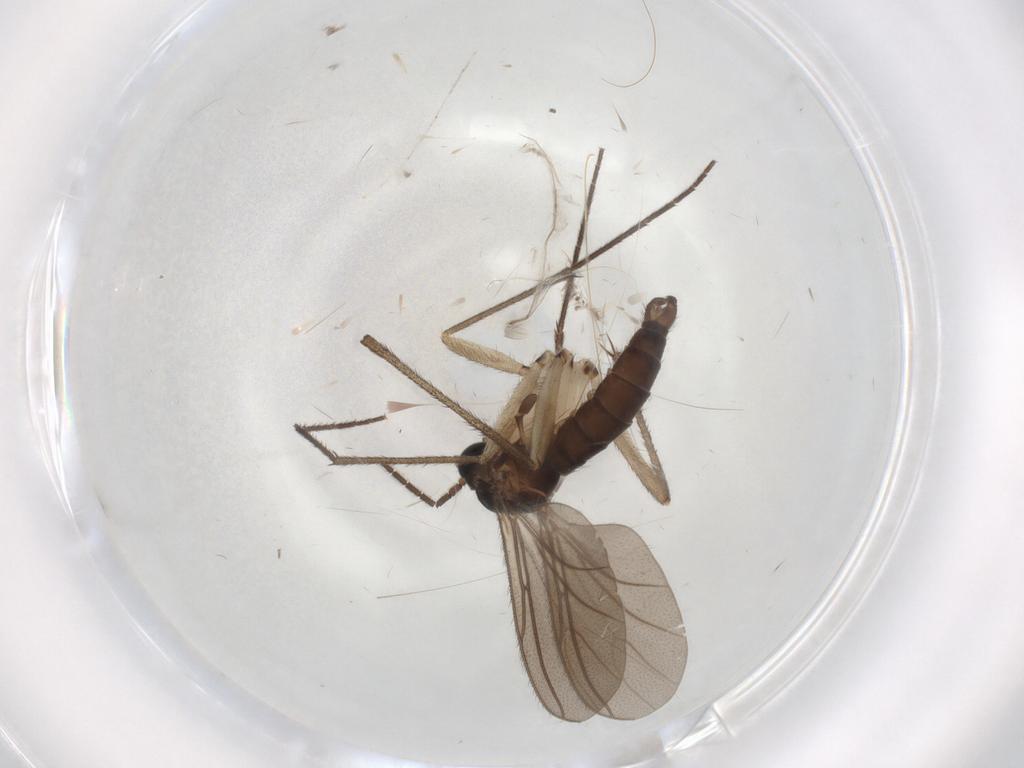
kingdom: Animalia
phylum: Arthropoda
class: Insecta
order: Diptera
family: Sciaridae
